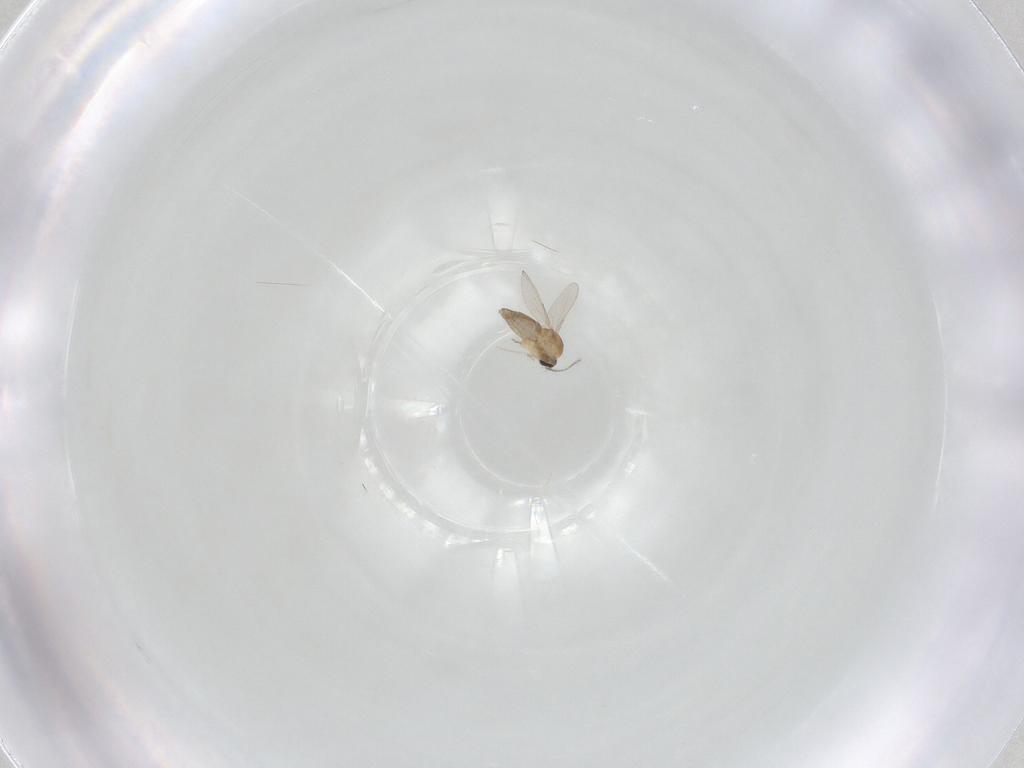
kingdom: Animalia
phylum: Arthropoda
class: Insecta
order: Diptera
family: Ceratopogonidae
